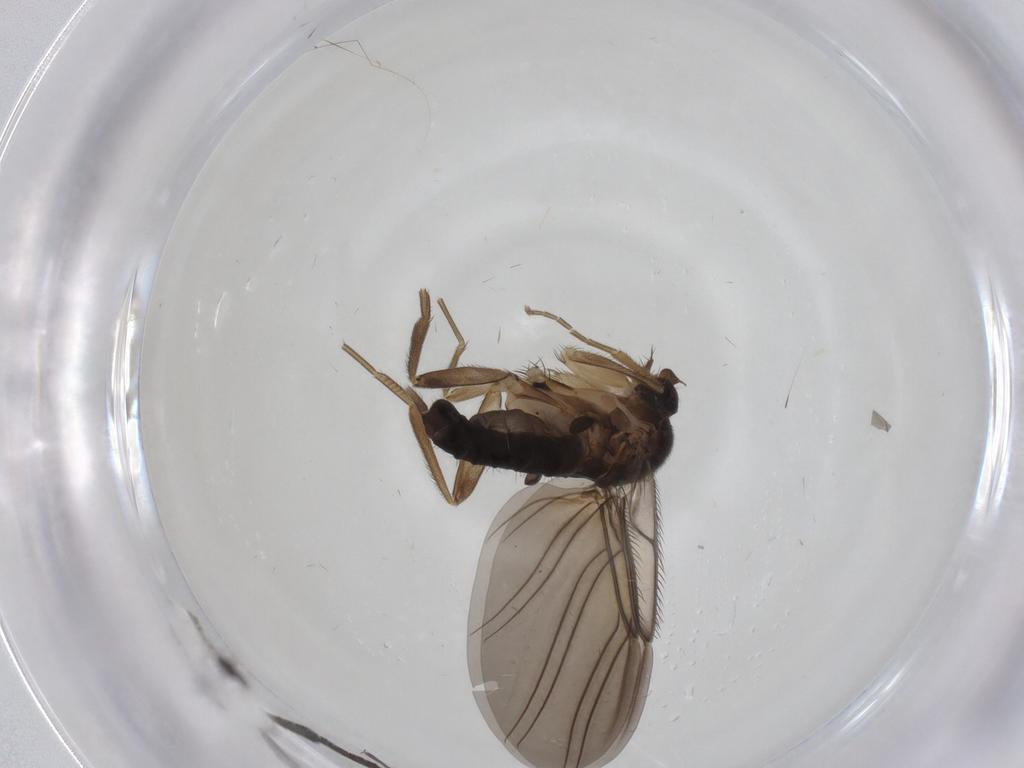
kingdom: Animalia
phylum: Arthropoda
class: Insecta
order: Diptera
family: Sciaridae
